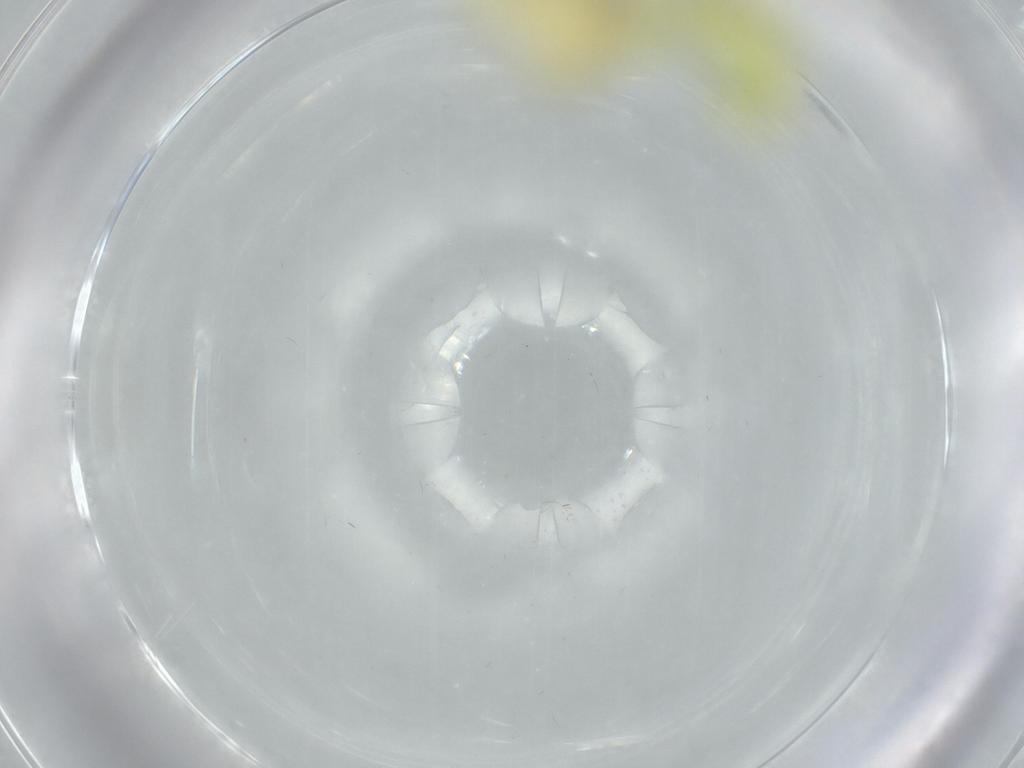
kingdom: Animalia
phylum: Arthropoda
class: Insecta
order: Hemiptera
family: Cicadellidae
